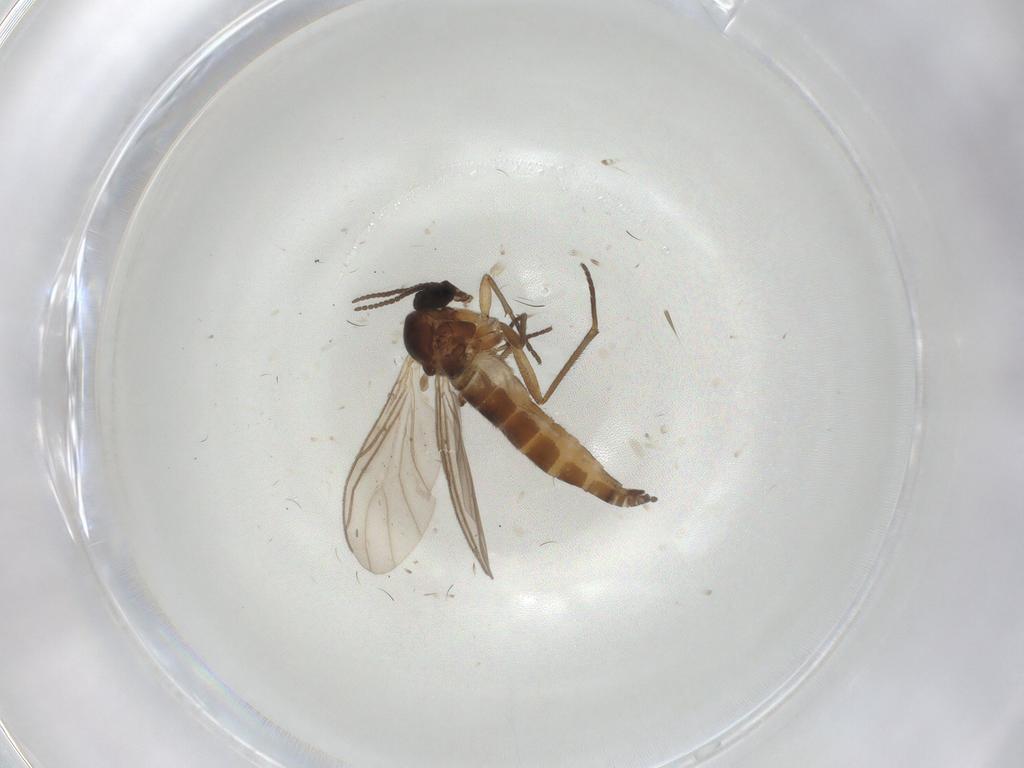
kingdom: Animalia
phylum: Arthropoda
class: Insecta
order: Diptera
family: Sciaridae
